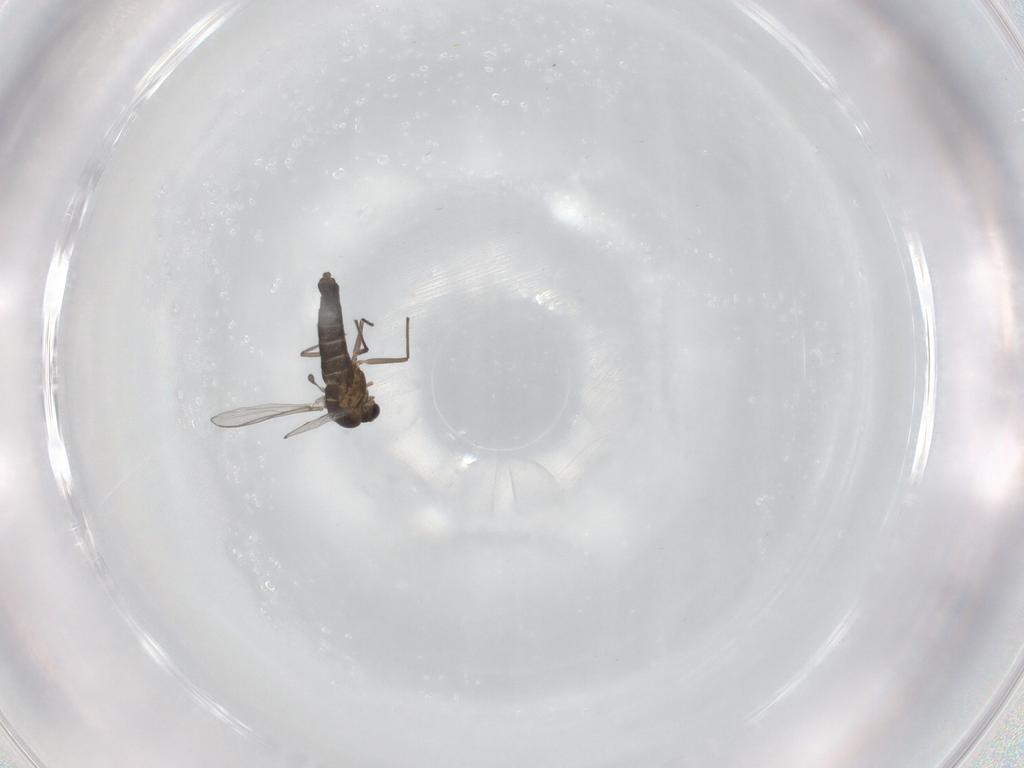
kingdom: Animalia
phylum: Arthropoda
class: Insecta
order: Diptera
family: Chironomidae
